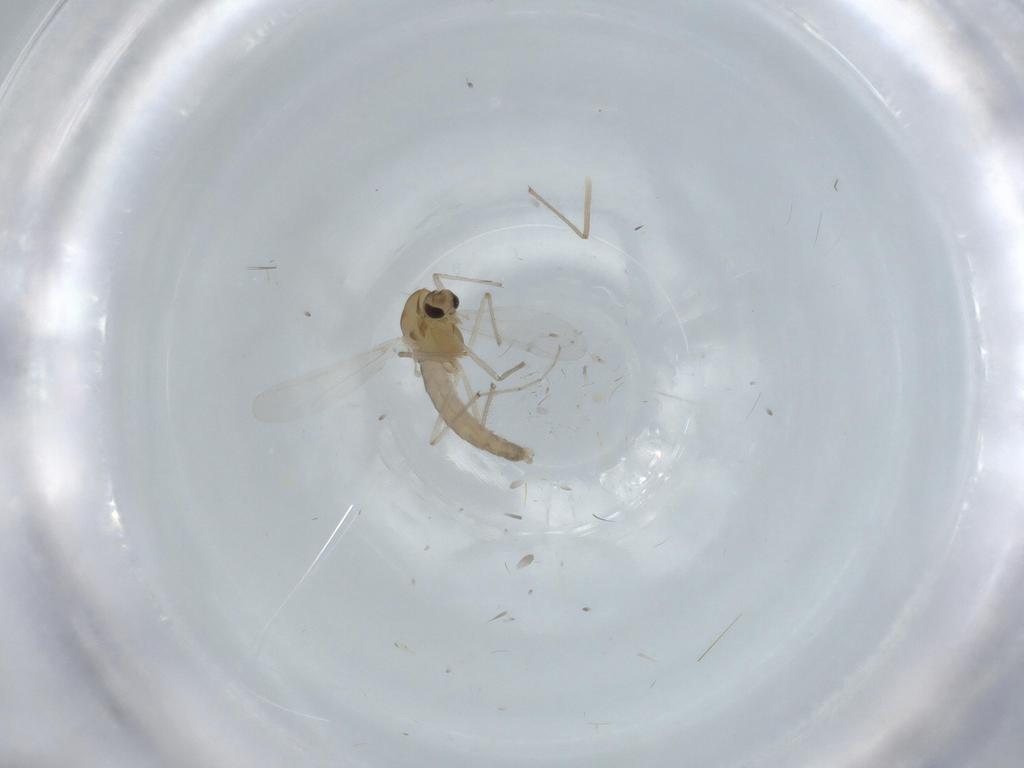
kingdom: Animalia
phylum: Arthropoda
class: Insecta
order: Diptera
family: Chironomidae
